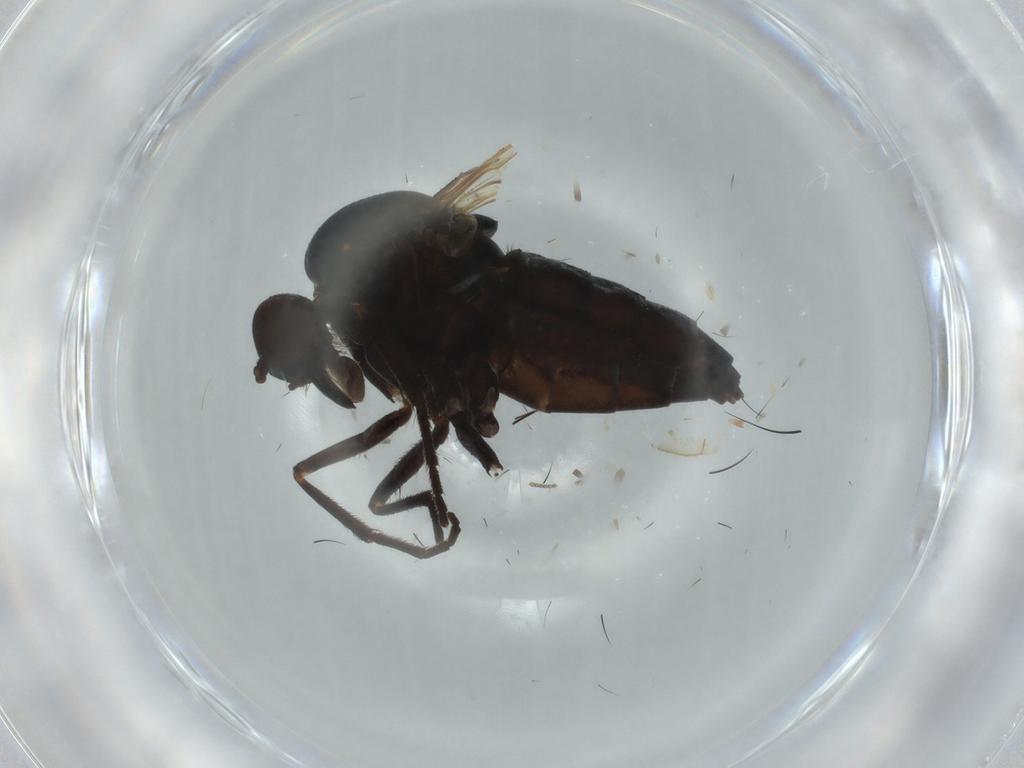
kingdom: Animalia
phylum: Arthropoda
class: Insecta
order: Diptera
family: Empididae
